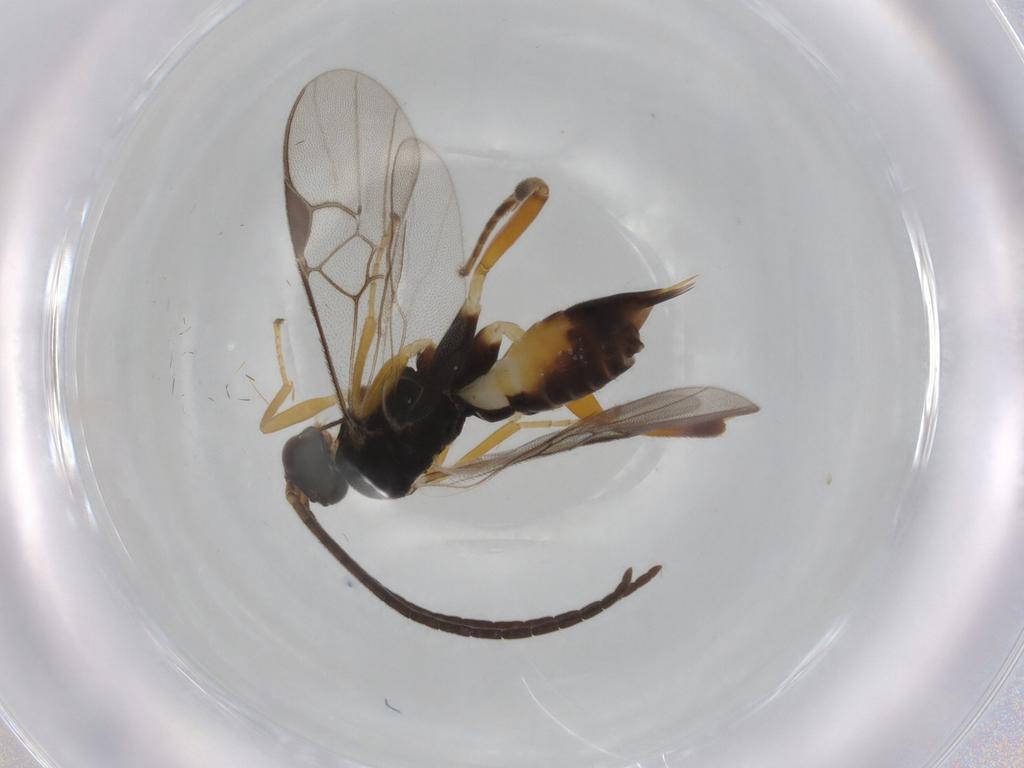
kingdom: Animalia
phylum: Arthropoda
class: Insecta
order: Hymenoptera
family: Braconidae
